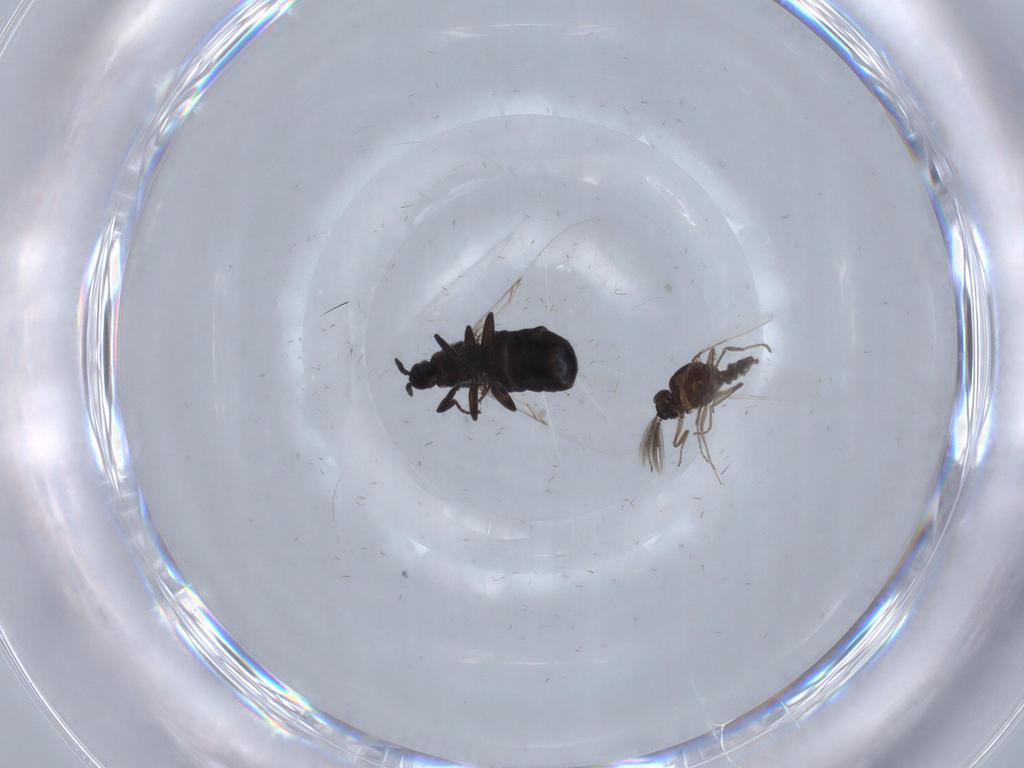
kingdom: Animalia
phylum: Arthropoda
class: Insecta
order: Diptera
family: Scatopsidae
